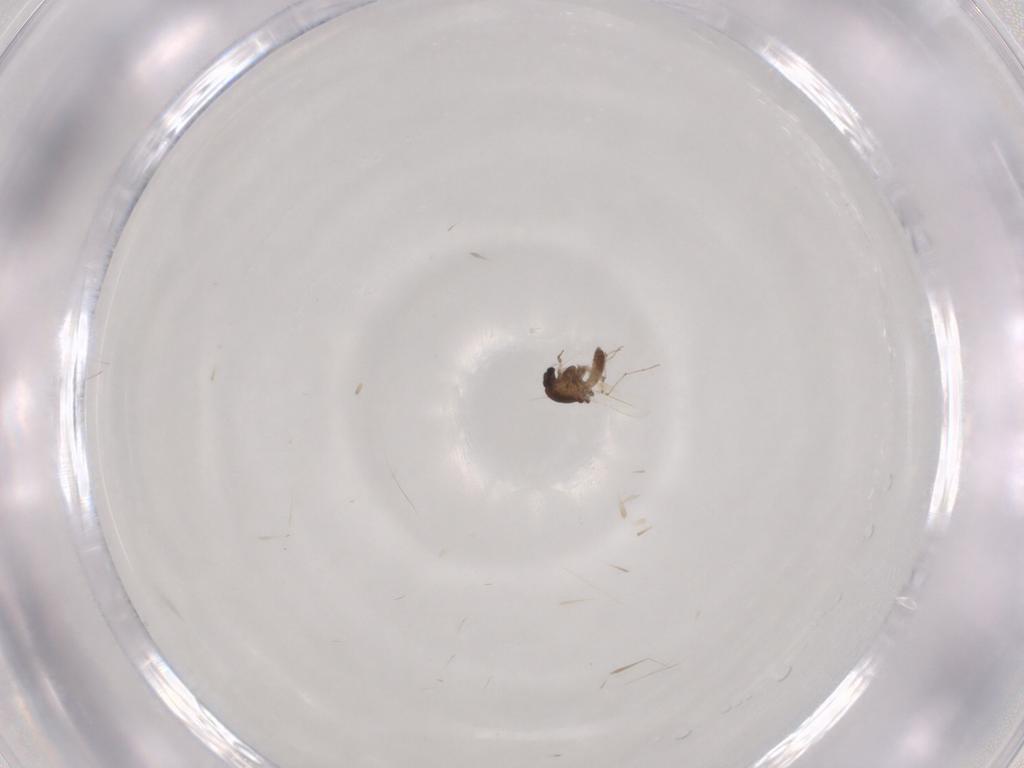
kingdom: Animalia
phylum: Arthropoda
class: Insecta
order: Diptera
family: Chironomidae
